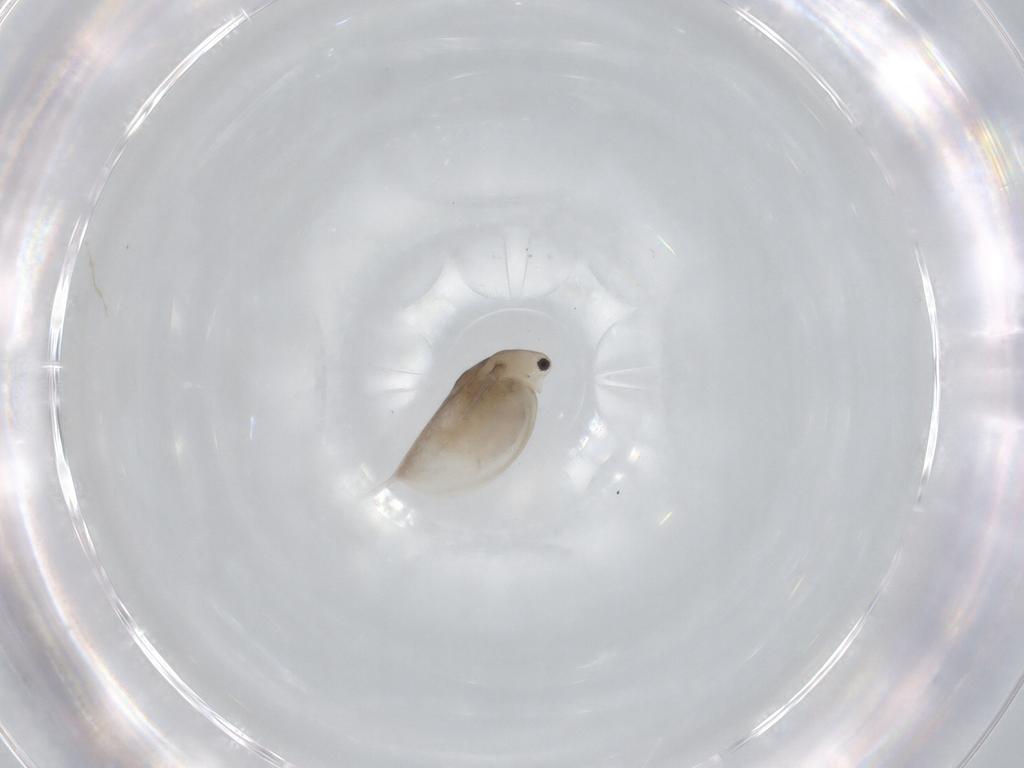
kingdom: Animalia
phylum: Arthropoda
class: Branchiopoda
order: Diplostraca
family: Daphniidae
